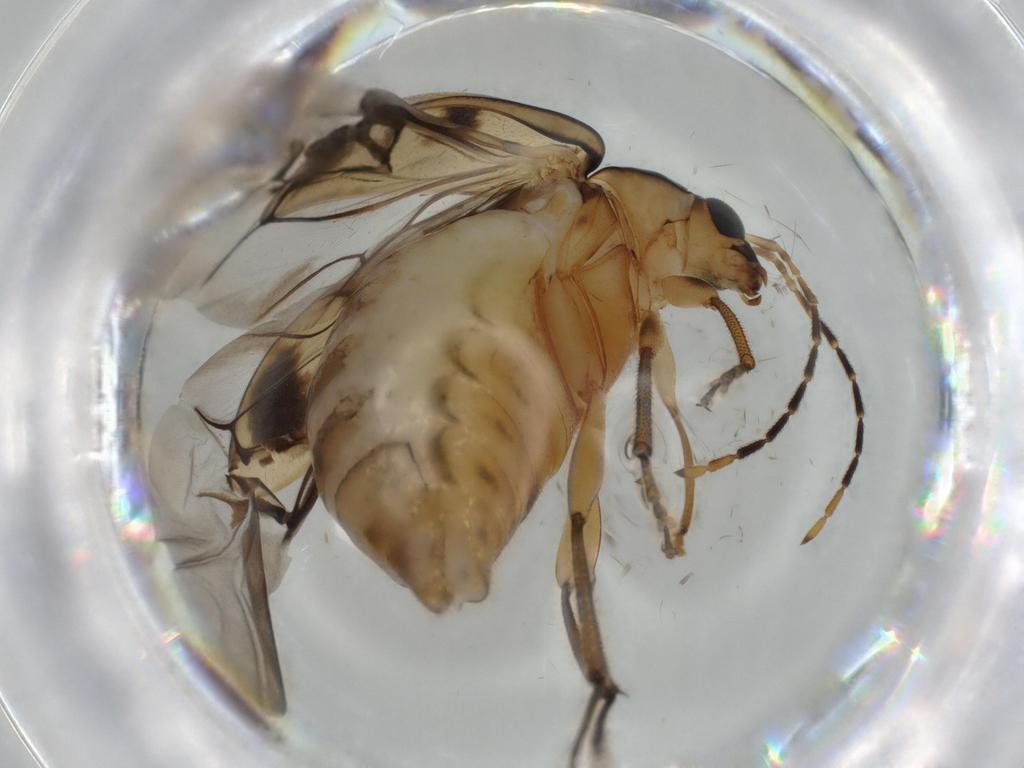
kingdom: Animalia
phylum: Arthropoda
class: Insecta
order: Coleoptera
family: Chrysomelidae
